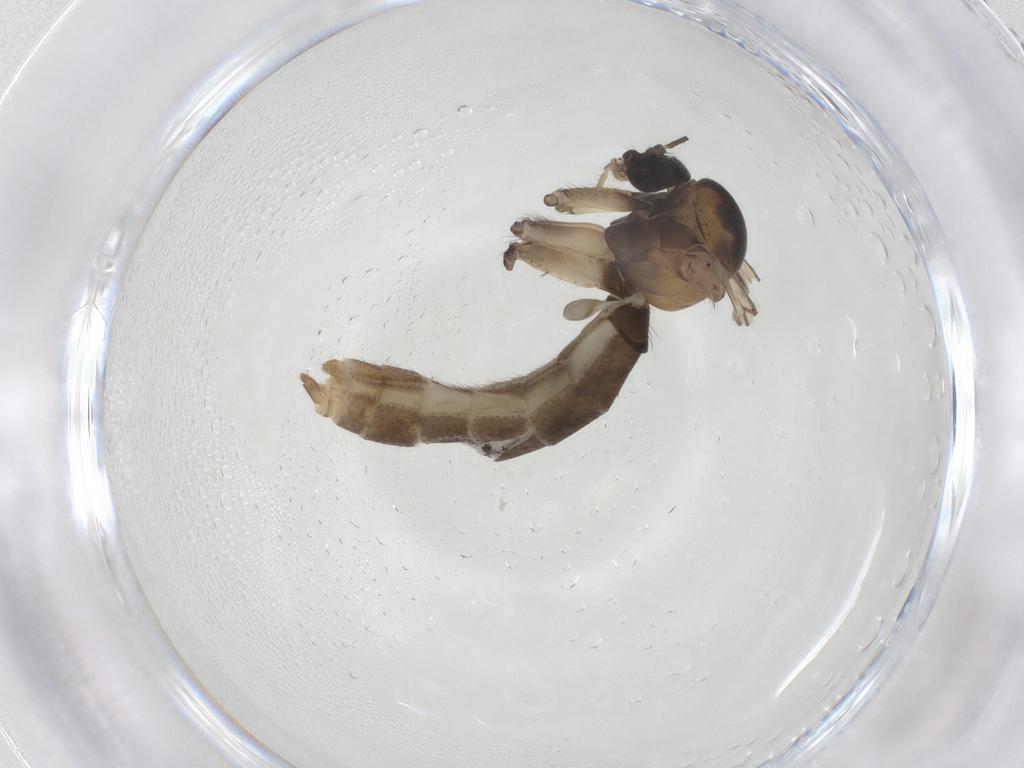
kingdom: Animalia
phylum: Arthropoda
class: Insecta
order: Diptera
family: Mycetophilidae
